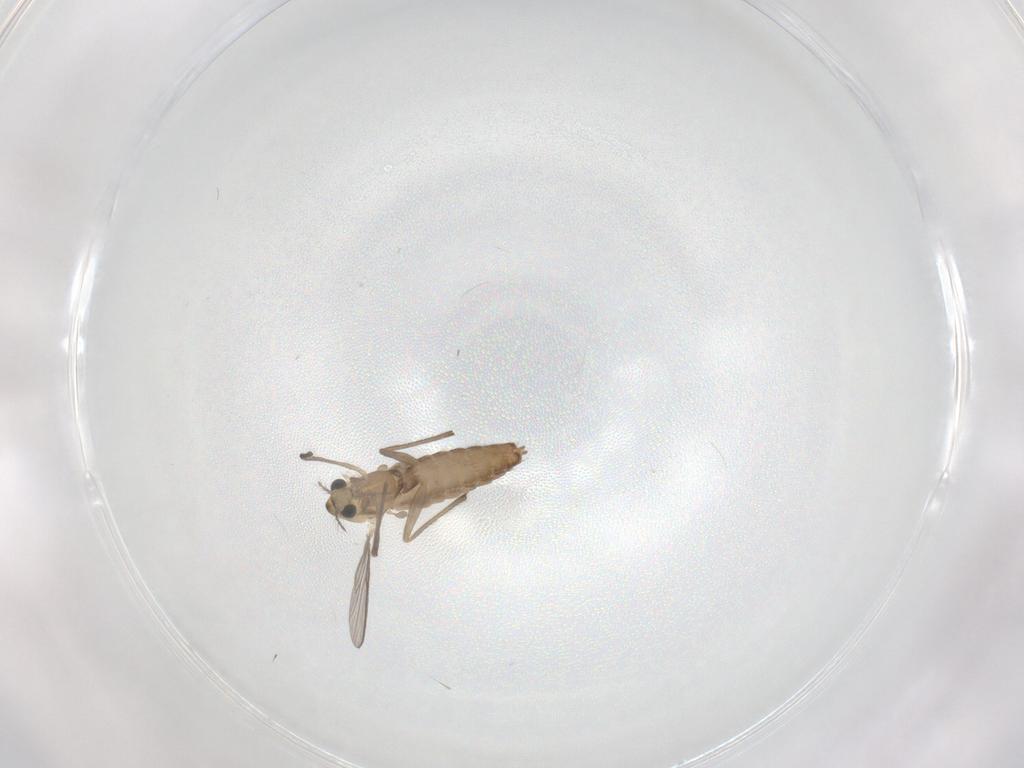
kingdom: Animalia
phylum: Arthropoda
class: Insecta
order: Diptera
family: Chironomidae
